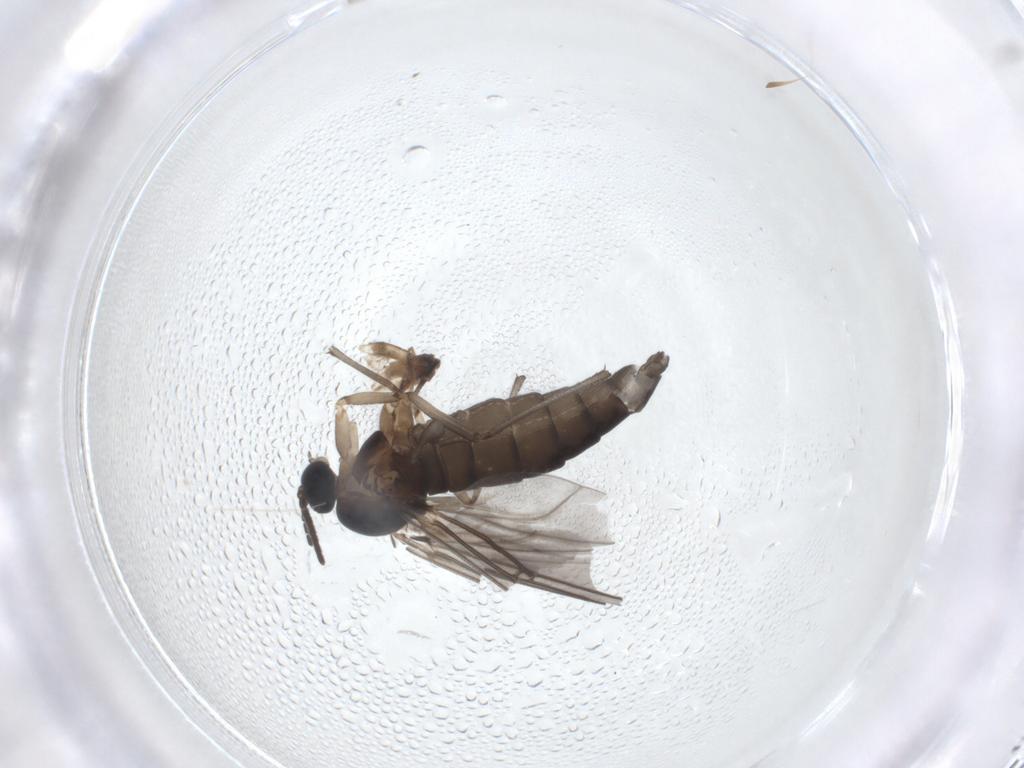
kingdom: Animalia
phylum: Arthropoda
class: Insecta
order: Diptera
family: Sciaridae
